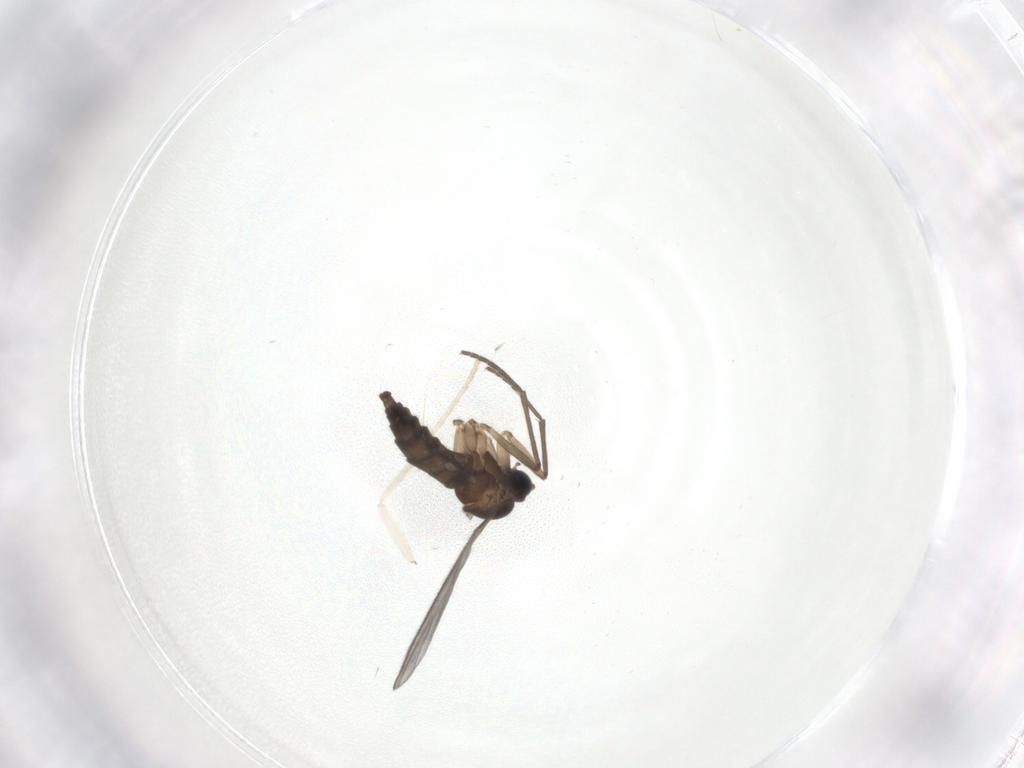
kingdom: Animalia
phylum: Arthropoda
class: Insecta
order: Diptera
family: Psychodidae
